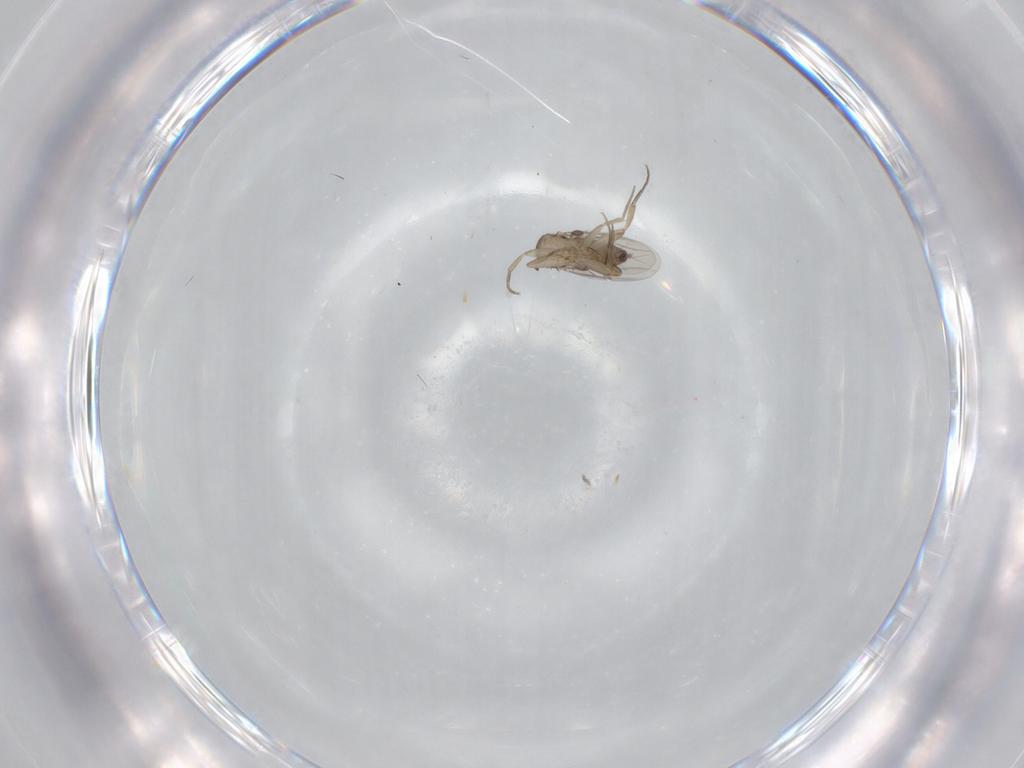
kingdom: Animalia
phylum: Arthropoda
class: Insecta
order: Diptera
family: Phoridae
